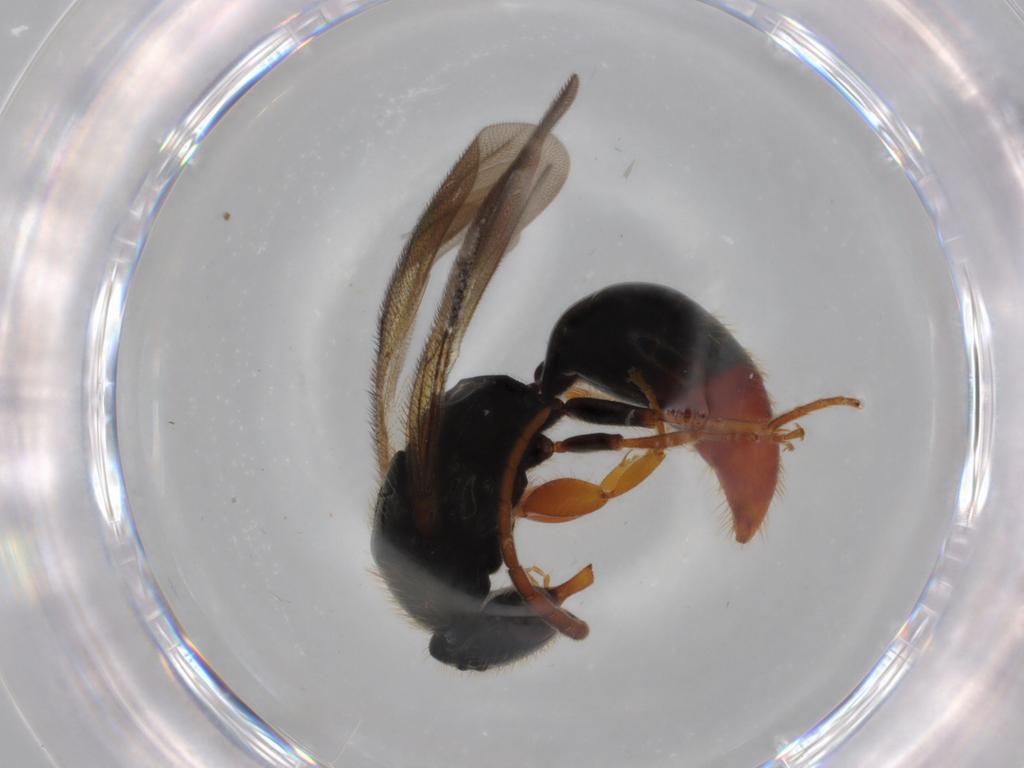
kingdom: Animalia
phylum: Arthropoda
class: Insecta
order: Hymenoptera
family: Bethylidae
